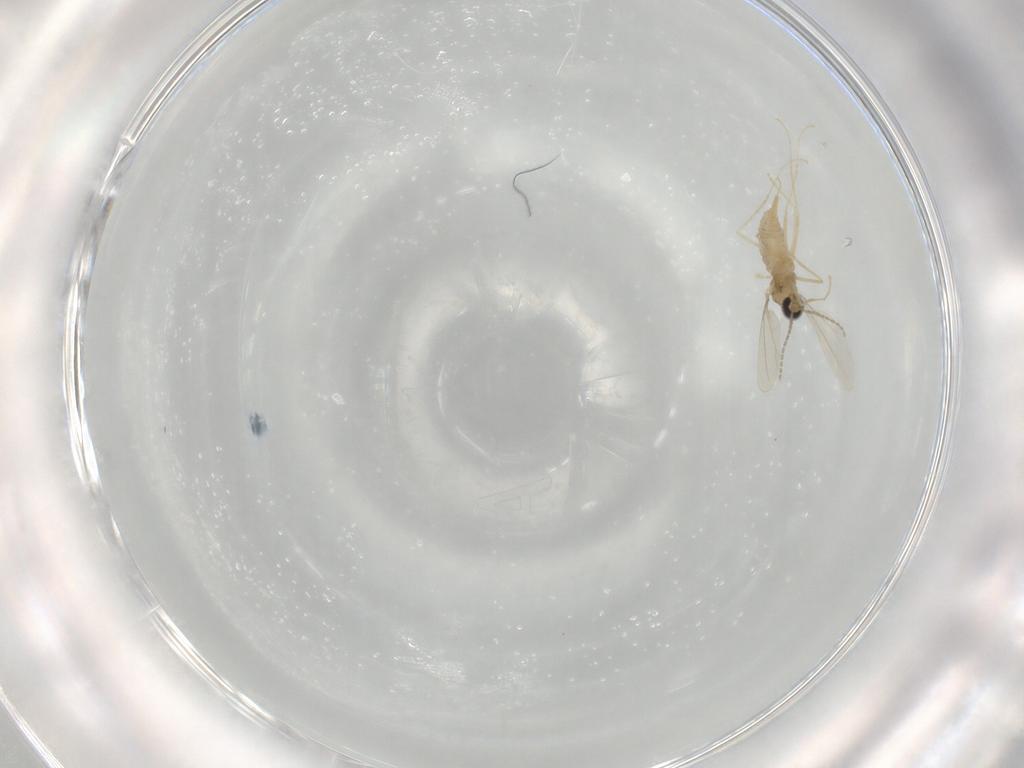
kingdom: Animalia
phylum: Arthropoda
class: Insecta
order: Diptera
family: Cecidomyiidae
